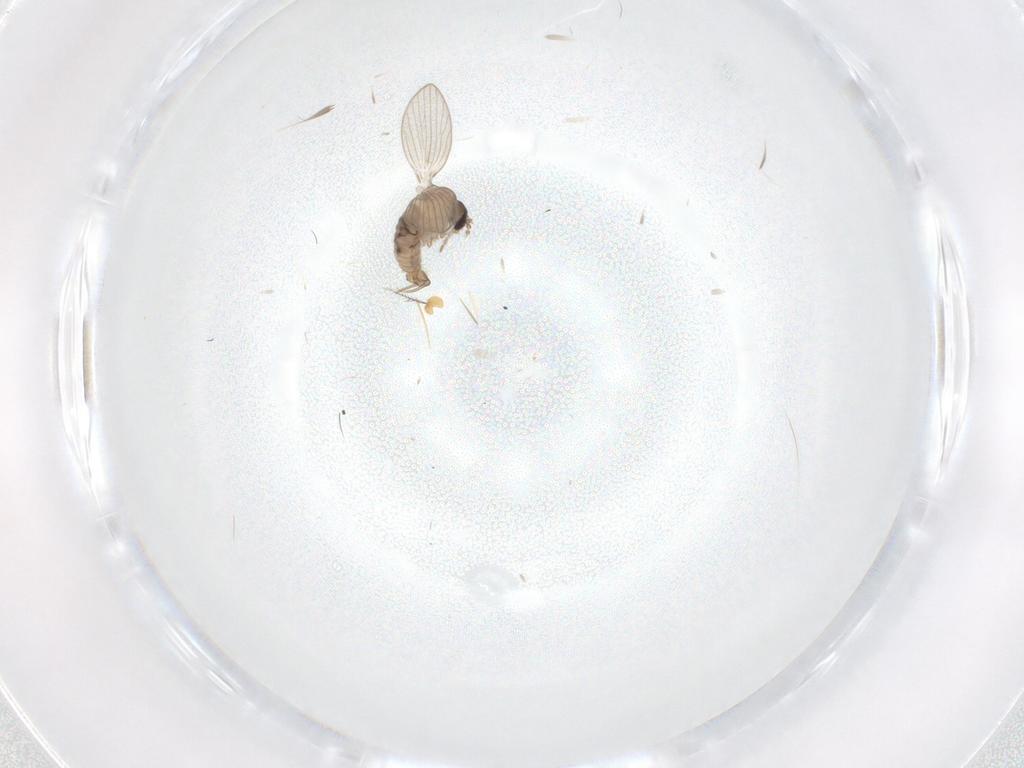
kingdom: Animalia
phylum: Arthropoda
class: Insecta
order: Diptera
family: Psychodidae
